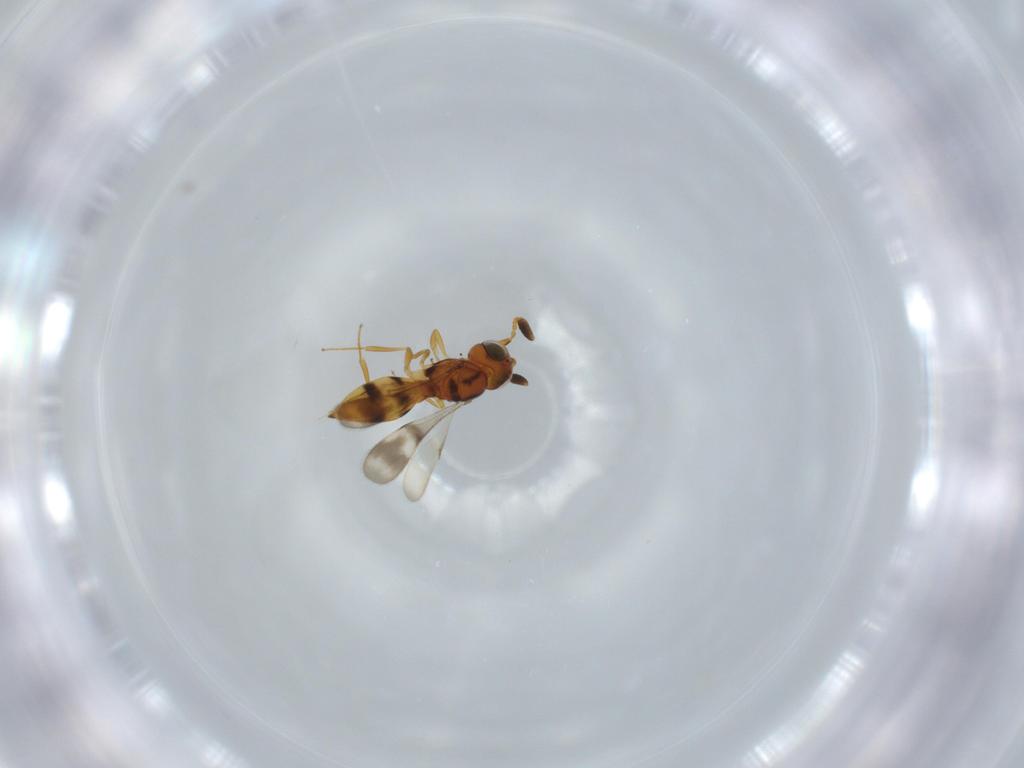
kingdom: Animalia
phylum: Arthropoda
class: Insecta
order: Hymenoptera
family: Scelionidae
